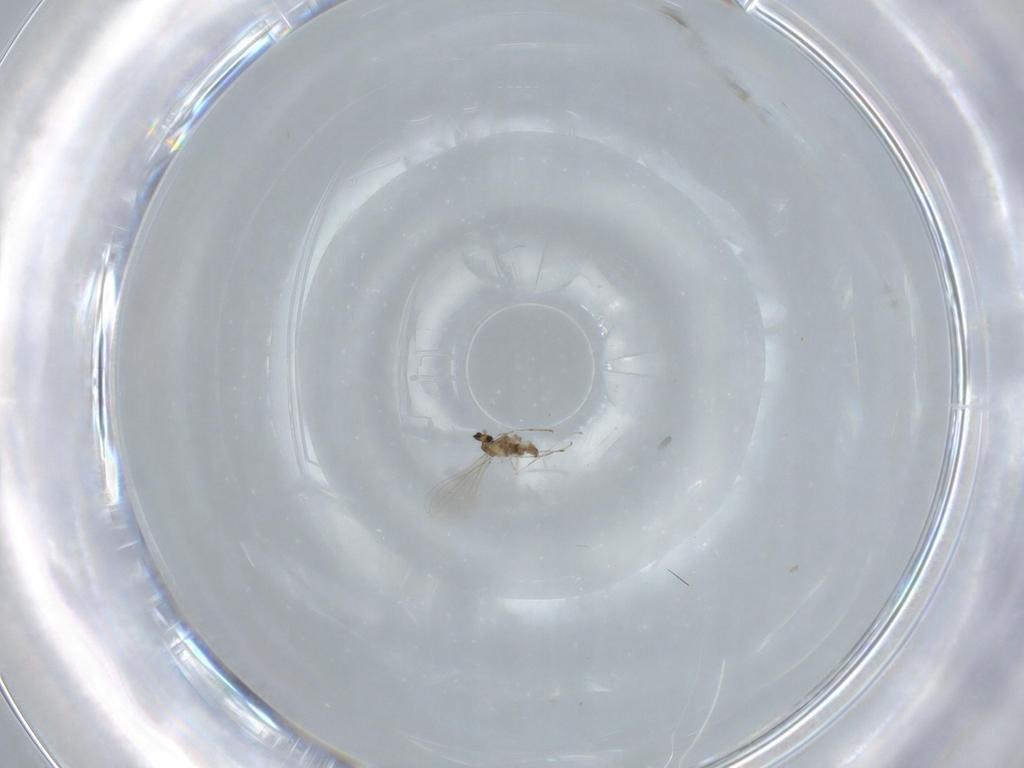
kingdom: Animalia
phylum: Arthropoda
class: Insecta
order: Diptera
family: Cecidomyiidae
